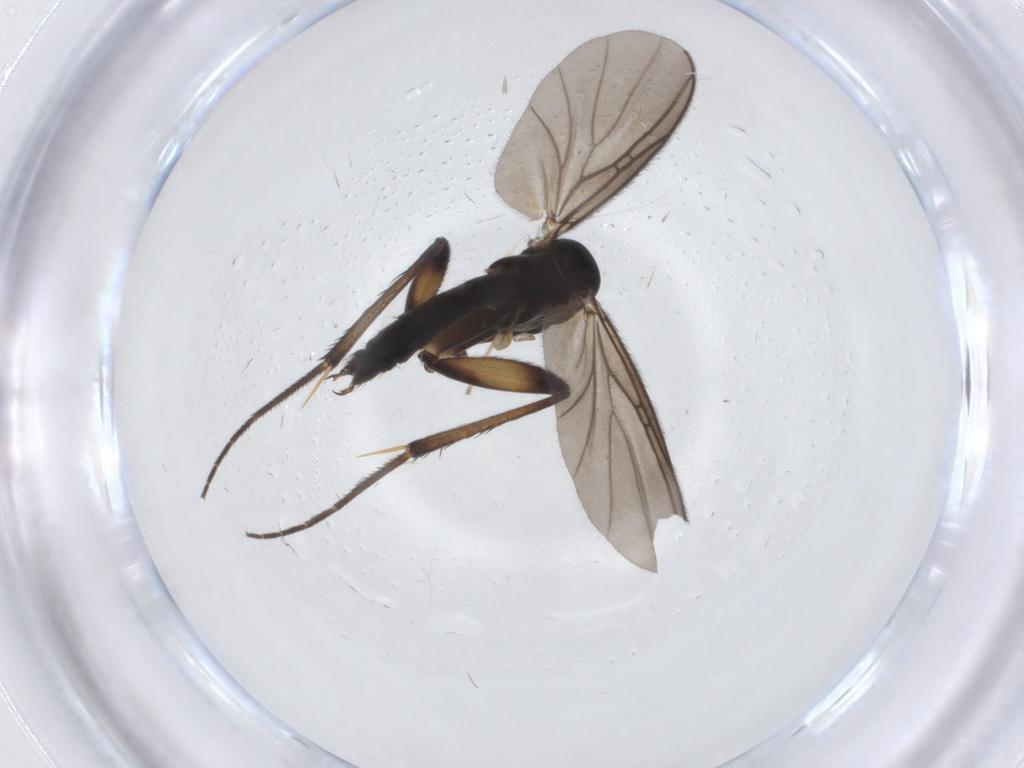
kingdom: Animalia
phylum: Arthropoda
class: Insecta
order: Diptera
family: Chironomidae
